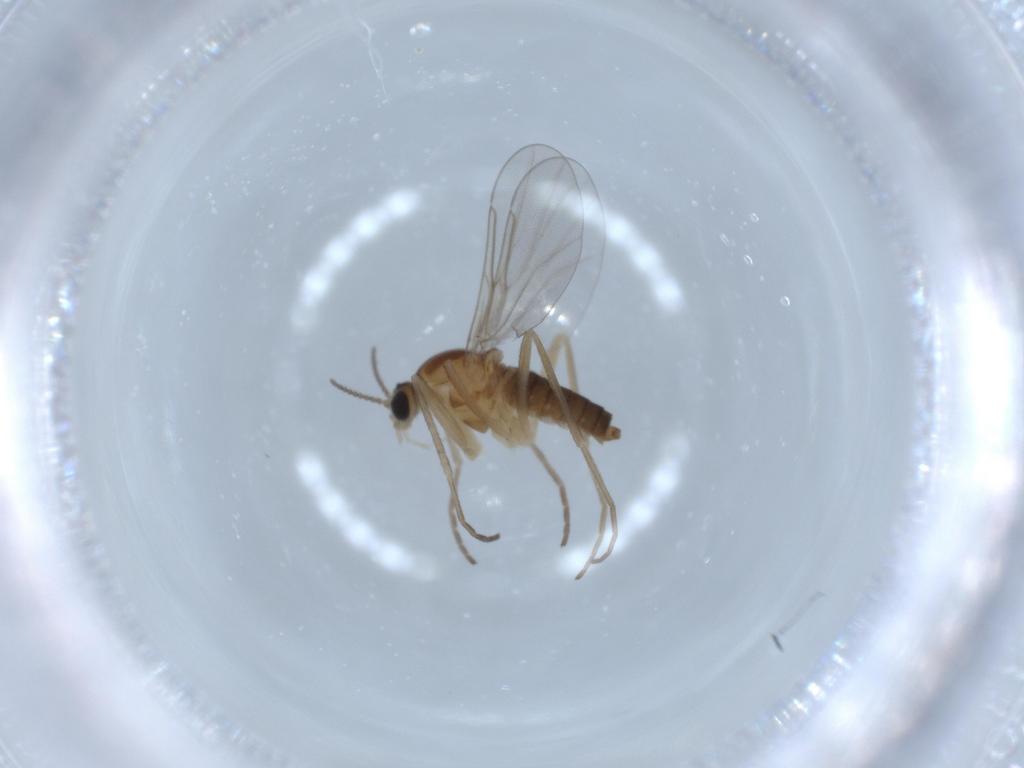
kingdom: Animalia
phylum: Arthropoda
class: Insecta
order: Diptera
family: Cecidomyiidae
